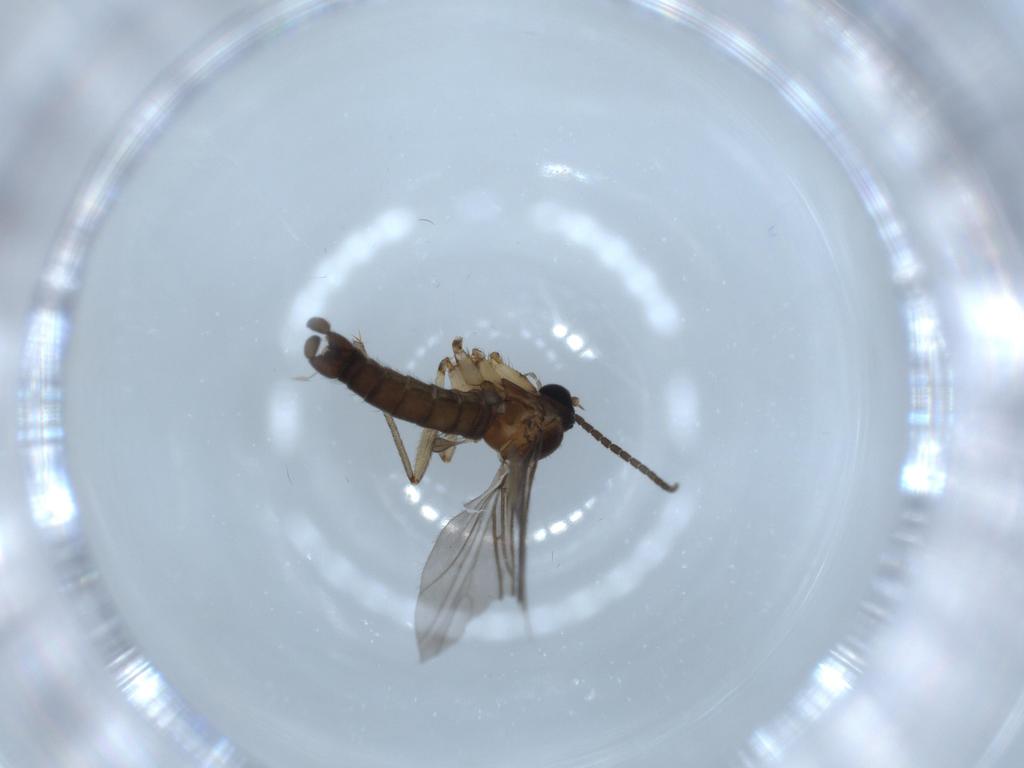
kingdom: Animalia
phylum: Arthropoda
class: Insecta
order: Diptera
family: Sciaridae
